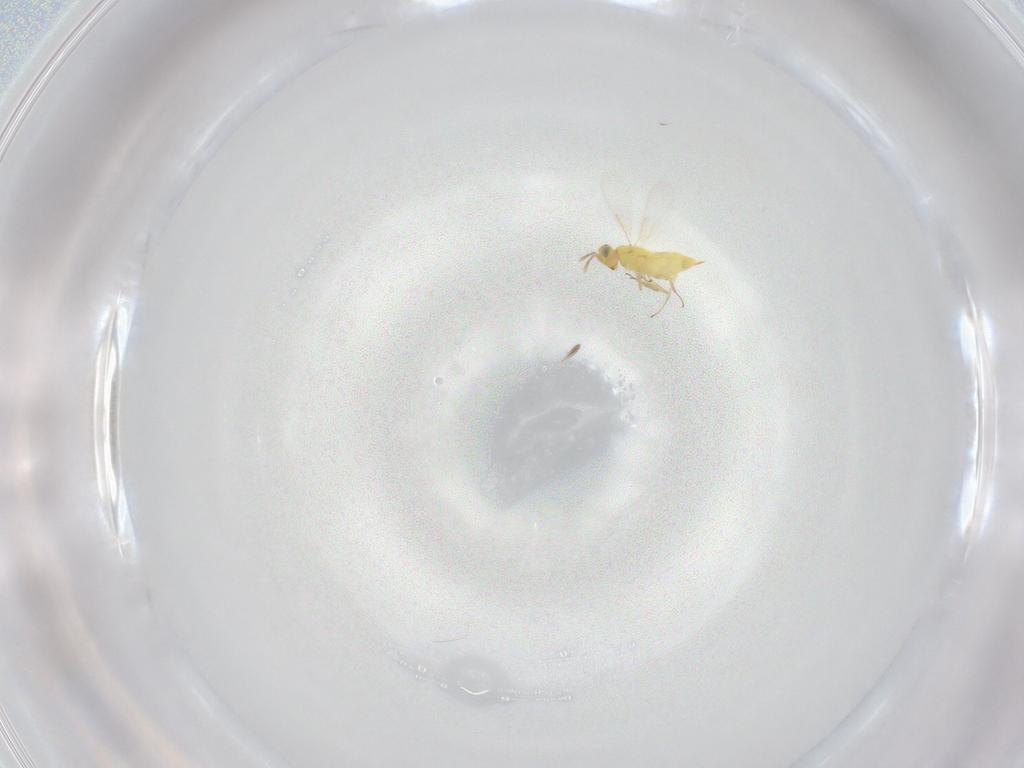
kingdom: Animalia
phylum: Arthropoda
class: Insecta
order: Hymenoptera
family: Aphelinidae
